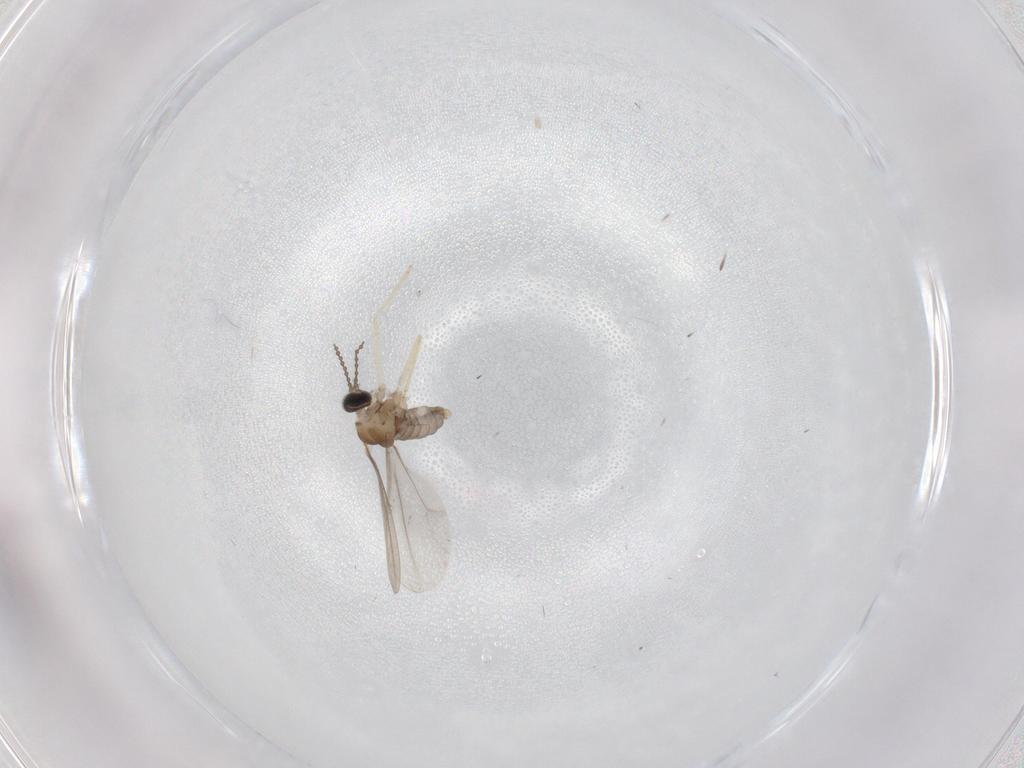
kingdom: Animalia
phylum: Arthropoda
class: Insecta
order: Diptera
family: Cecidomyiidae
